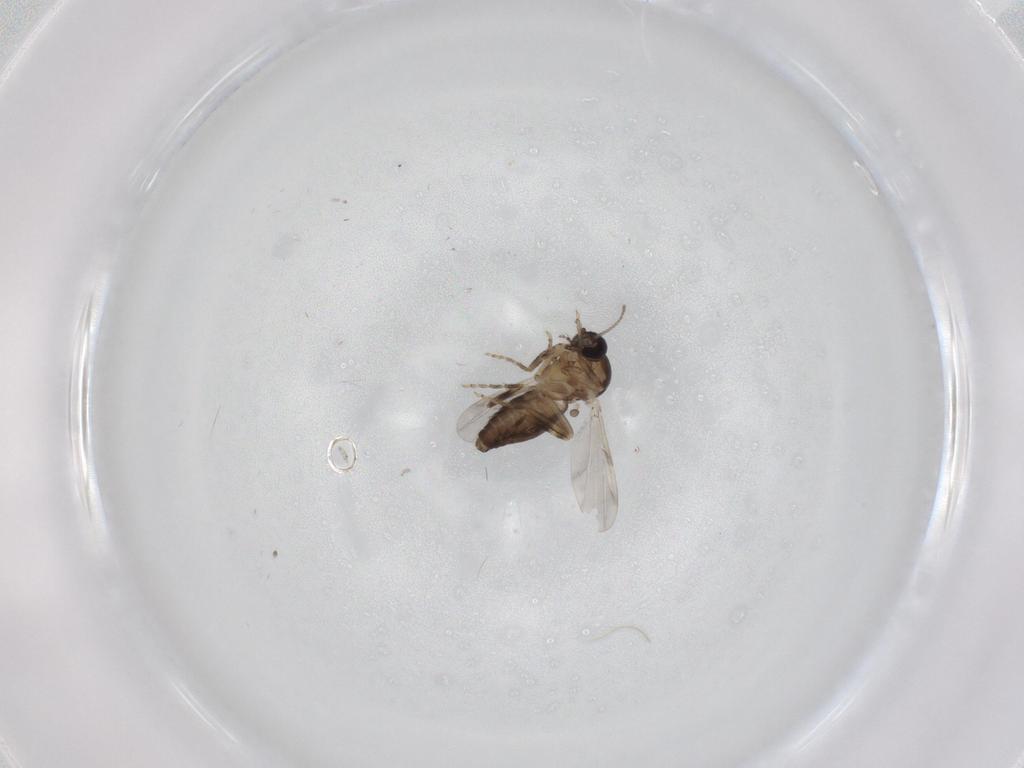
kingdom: Animalia
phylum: Arthropoda
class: Insecta
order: Diptera
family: Ceratopogonidae
